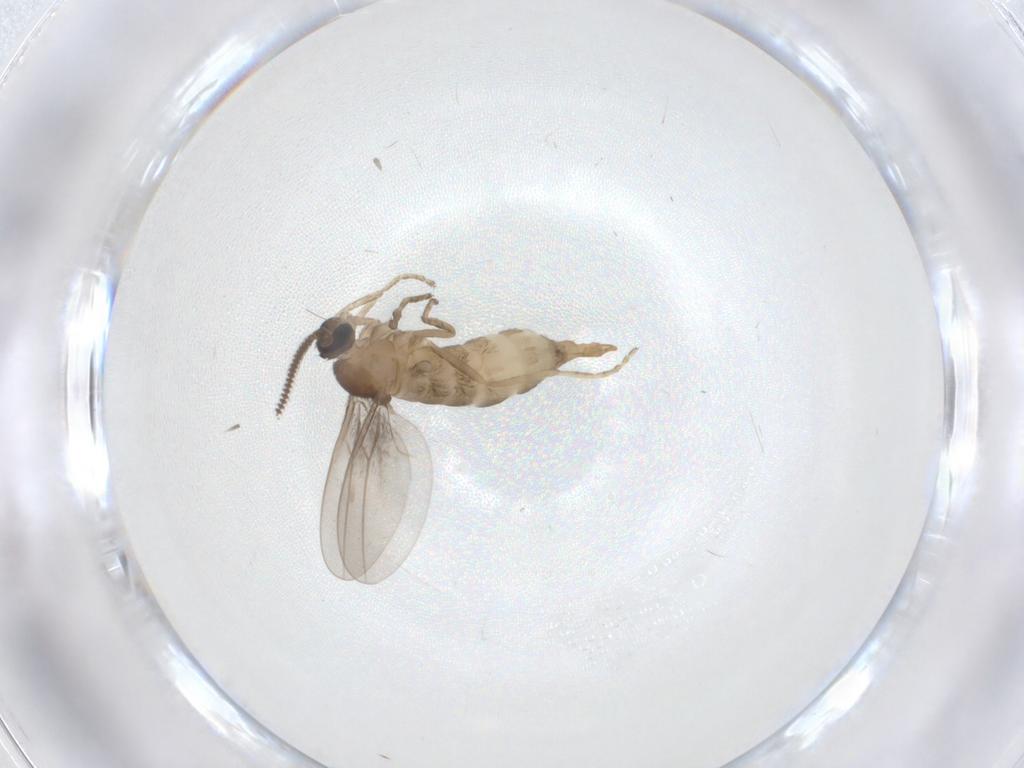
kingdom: Animalia
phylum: Arthropoda
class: Insecta
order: Diptera
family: Cecidomyiidae
